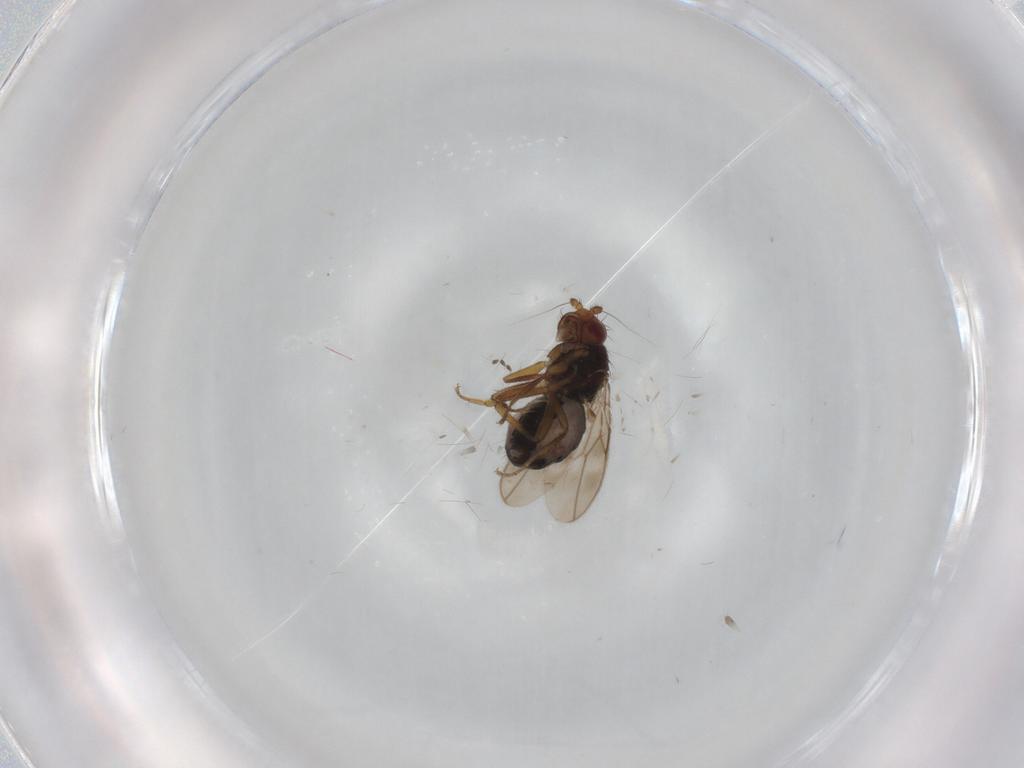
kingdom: Animalia
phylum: Arthropoda
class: Insecta
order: Diptera
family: Sphaeroceridae
